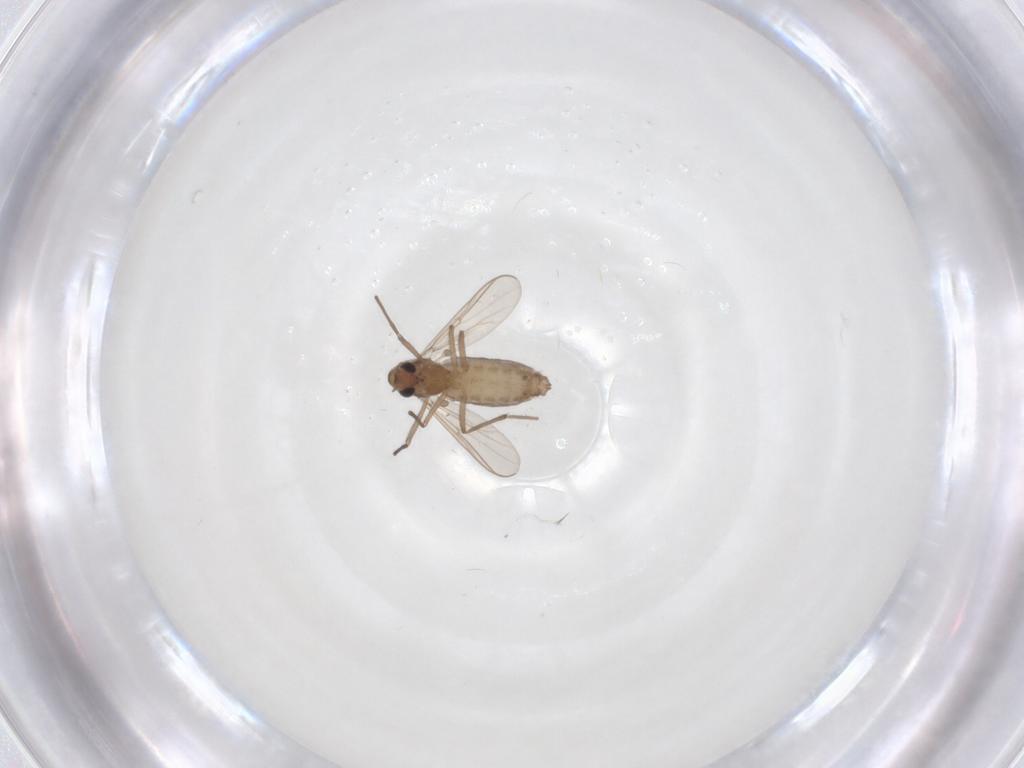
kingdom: Animalia
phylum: Arthropoda
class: Insecta
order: Diptera
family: Chironomidae
